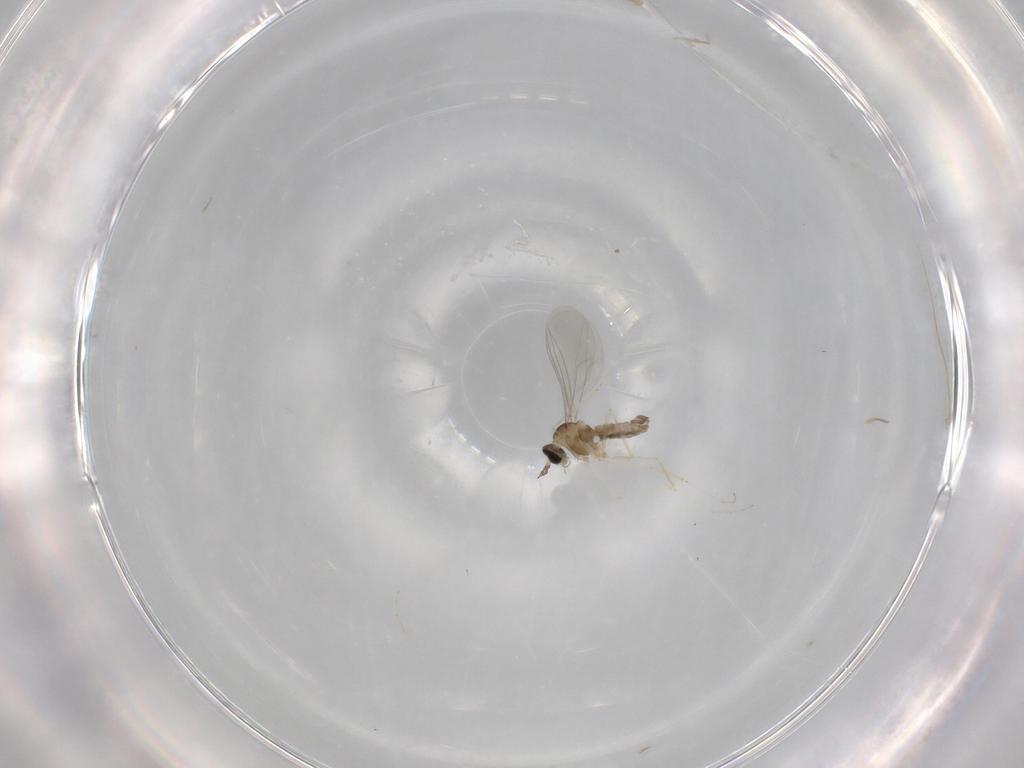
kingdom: Animalia
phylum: Arthropoda
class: Insecta
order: Diptera
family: Cecidomyiidae
